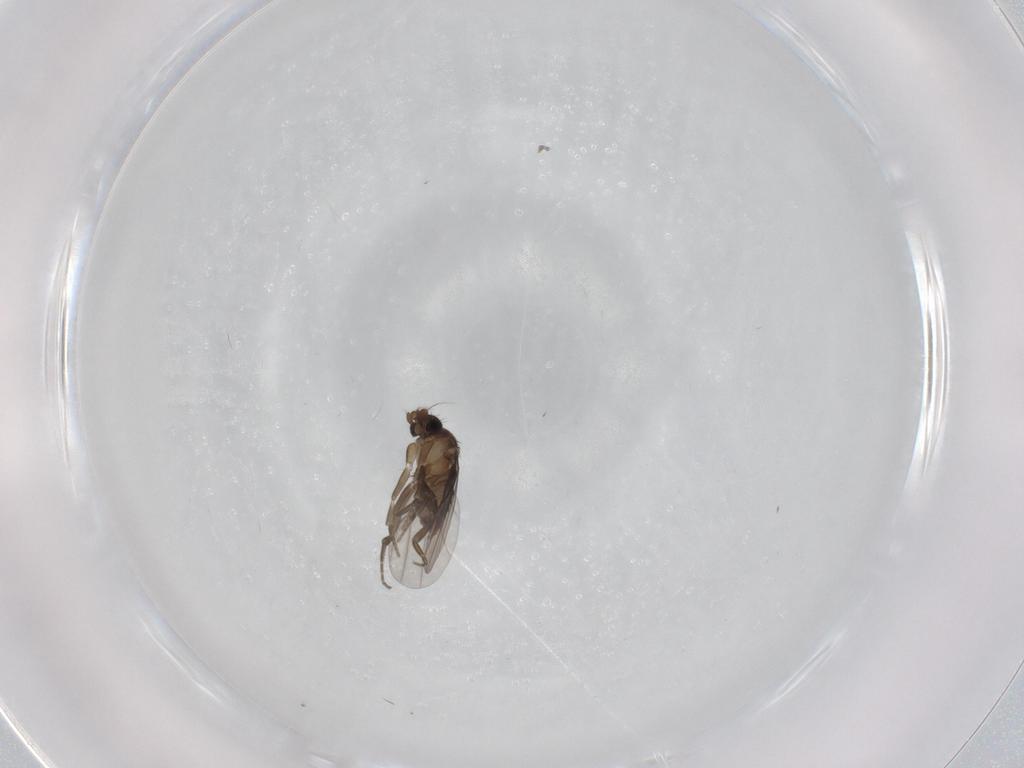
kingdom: Animalia
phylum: Arthropoda
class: Insecta
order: Diptera
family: Phoridae
